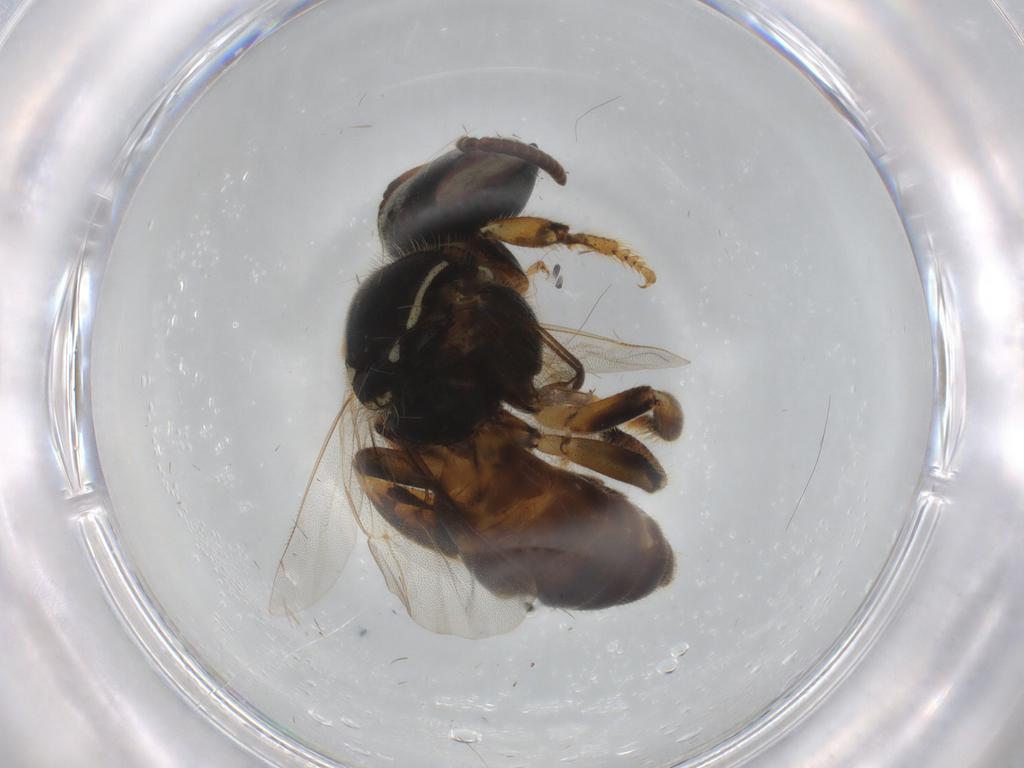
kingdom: Animalia
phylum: Arthropoda
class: Insecta
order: Hymenoptera
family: Apidae
